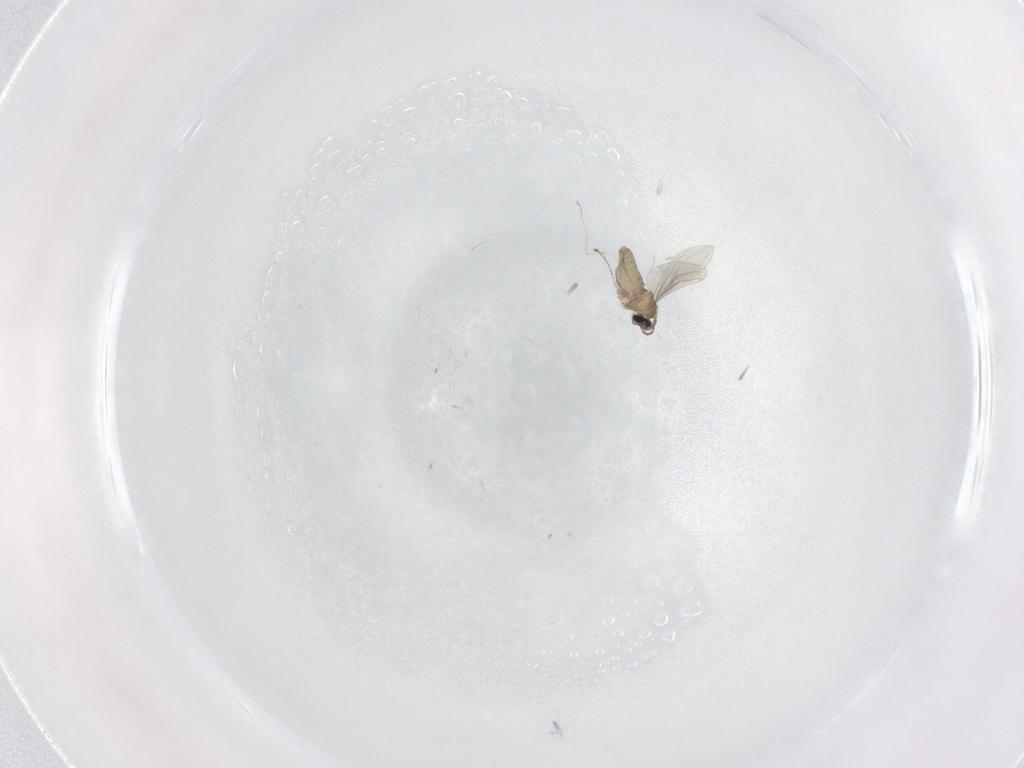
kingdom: Animalia
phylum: Arthropoda
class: Insecta
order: Diptera
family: Cecidomyiidae
